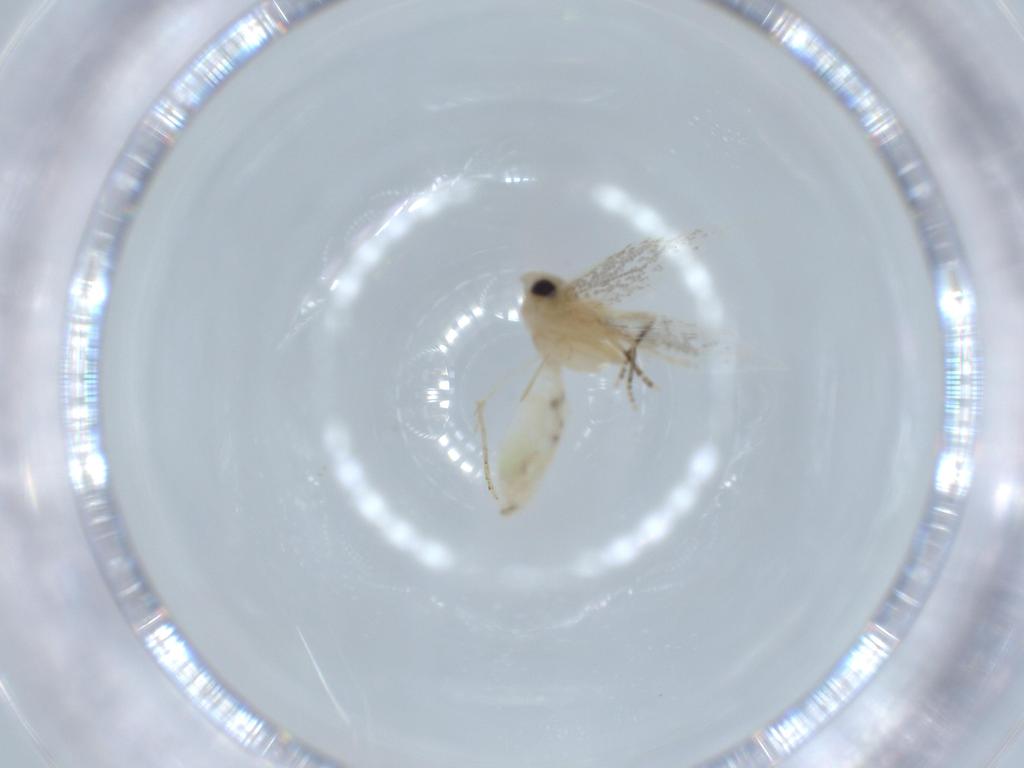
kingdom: Animalia
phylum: Arthropoda
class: Insecta
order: Lepidoptera
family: Bucculatricidae
